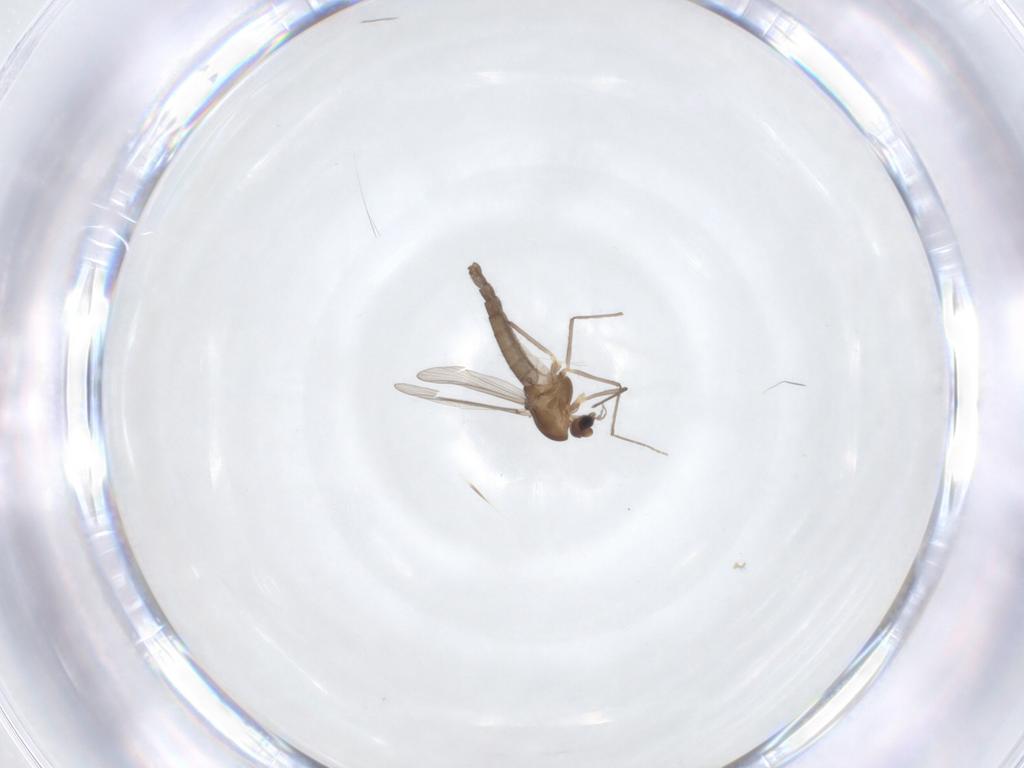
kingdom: Animalia
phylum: Arthropoda
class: Insecta
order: Diptera
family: Chironomidae
